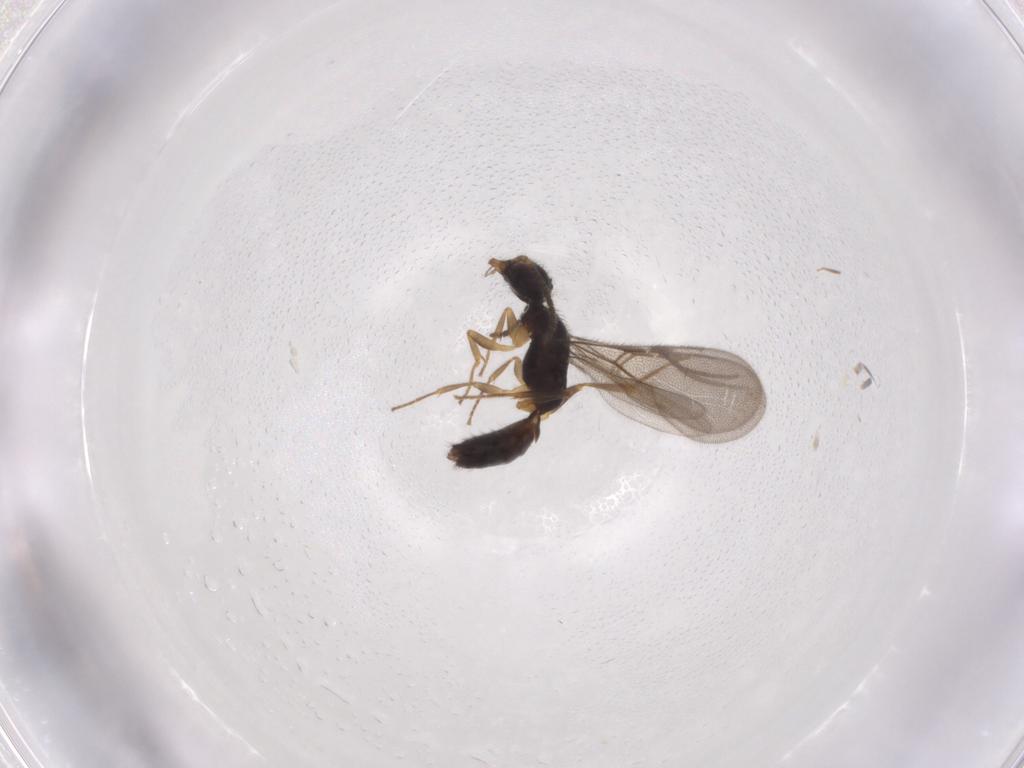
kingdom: Animalia
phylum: Arthropoda
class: Insecta
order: Hymenoptera
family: Bethylidae
